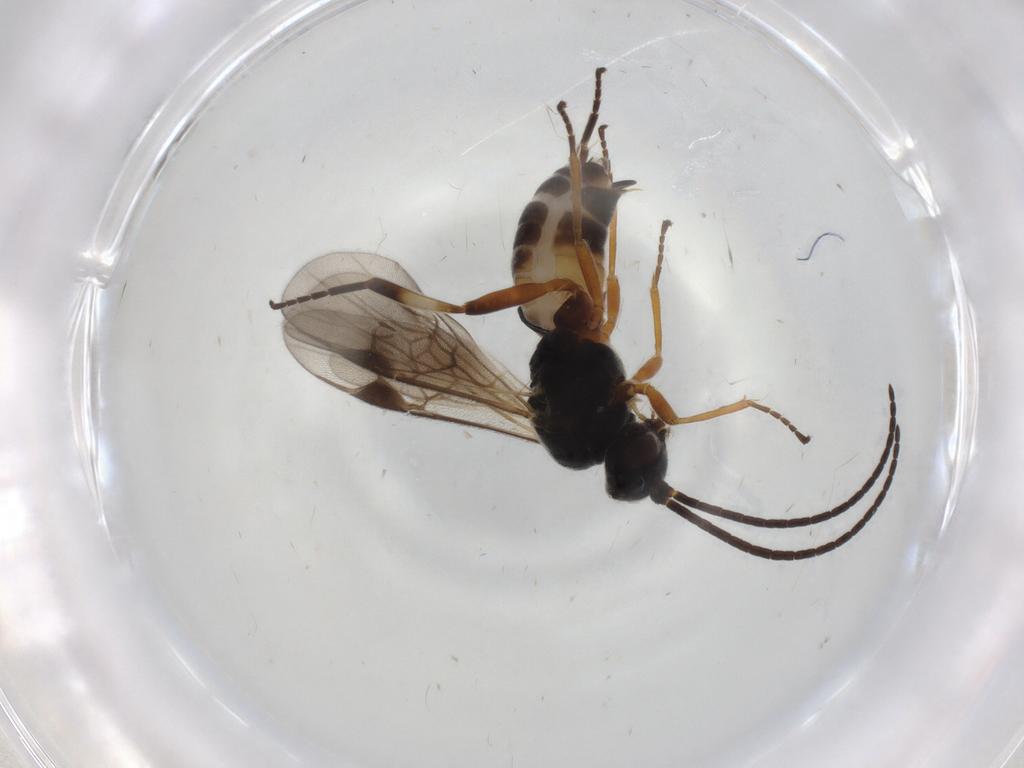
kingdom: Animalia
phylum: Arthropoda
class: Insecta
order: Hymenoptera
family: Braconidae
